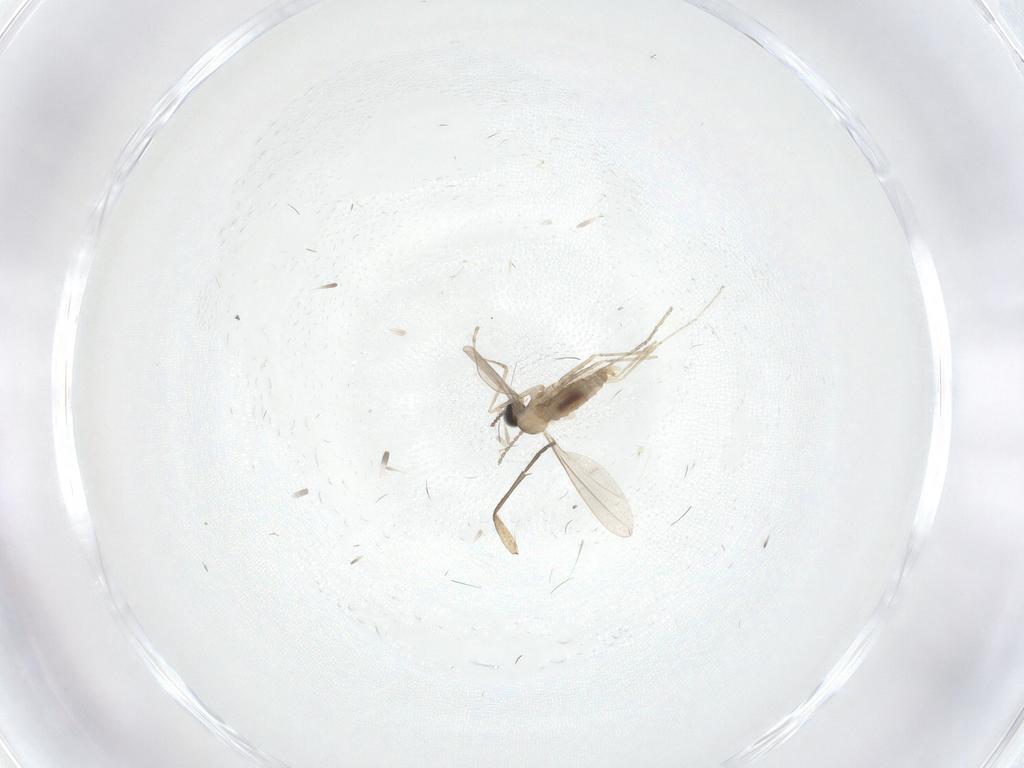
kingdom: Animalia
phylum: Arthropoda
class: Insecta
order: Diptera
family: Cecidomyiidae
